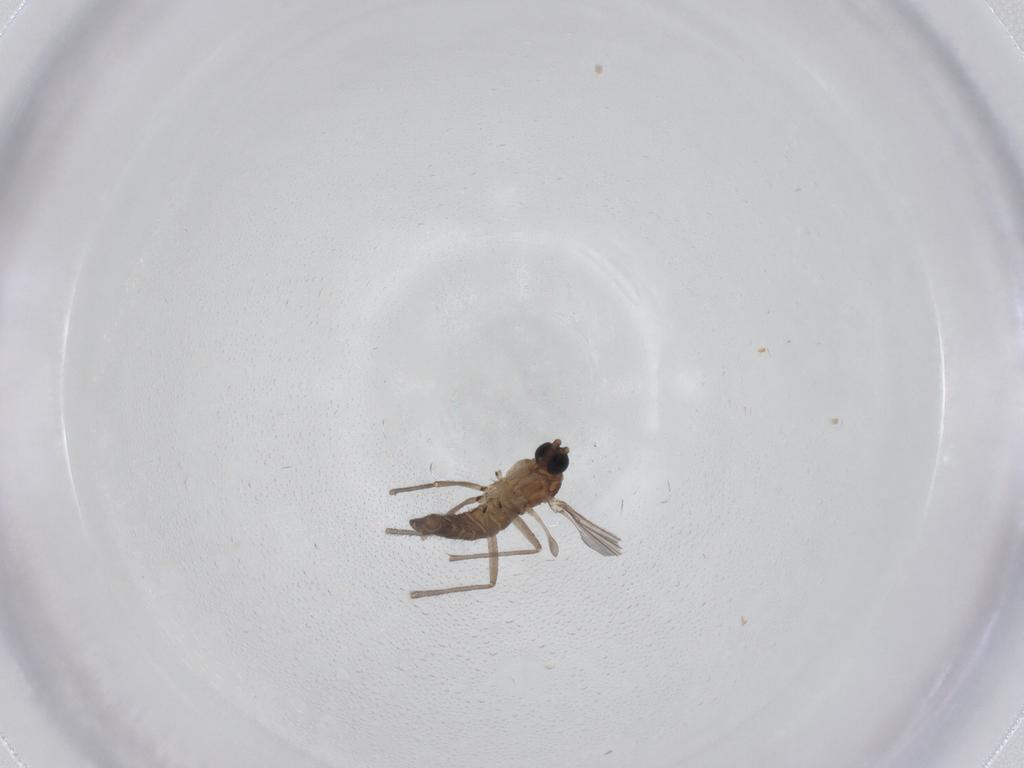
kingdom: Animalia
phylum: Arthropoda
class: Insecta
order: Diptera
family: Sciaridae
